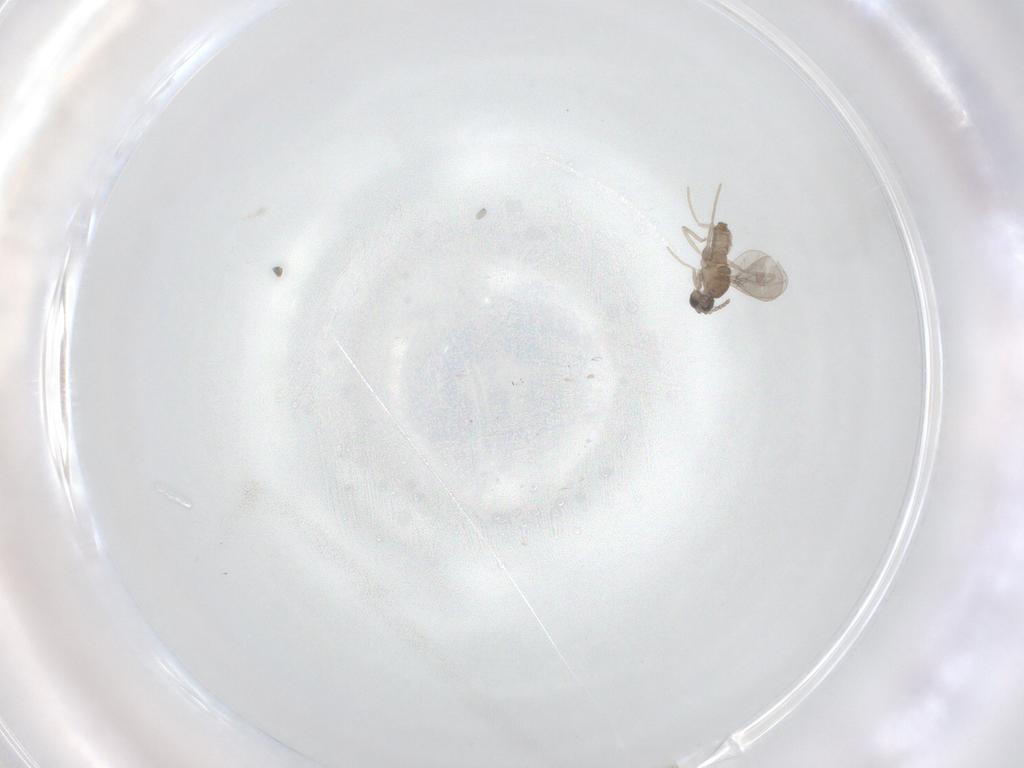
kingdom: Animalia
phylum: Arthropoda
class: Insecta
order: Diptera
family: Cecidomyiidae
